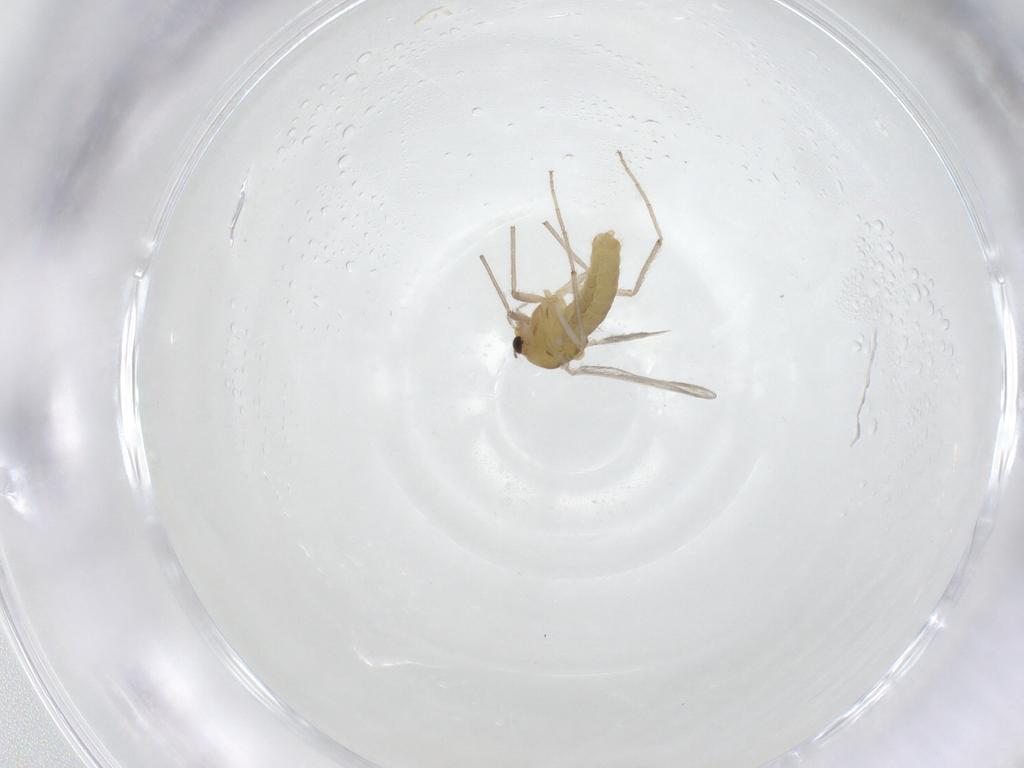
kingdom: Animalia
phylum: Arthropoda
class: Insecta
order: Diptera
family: Chironomidae
